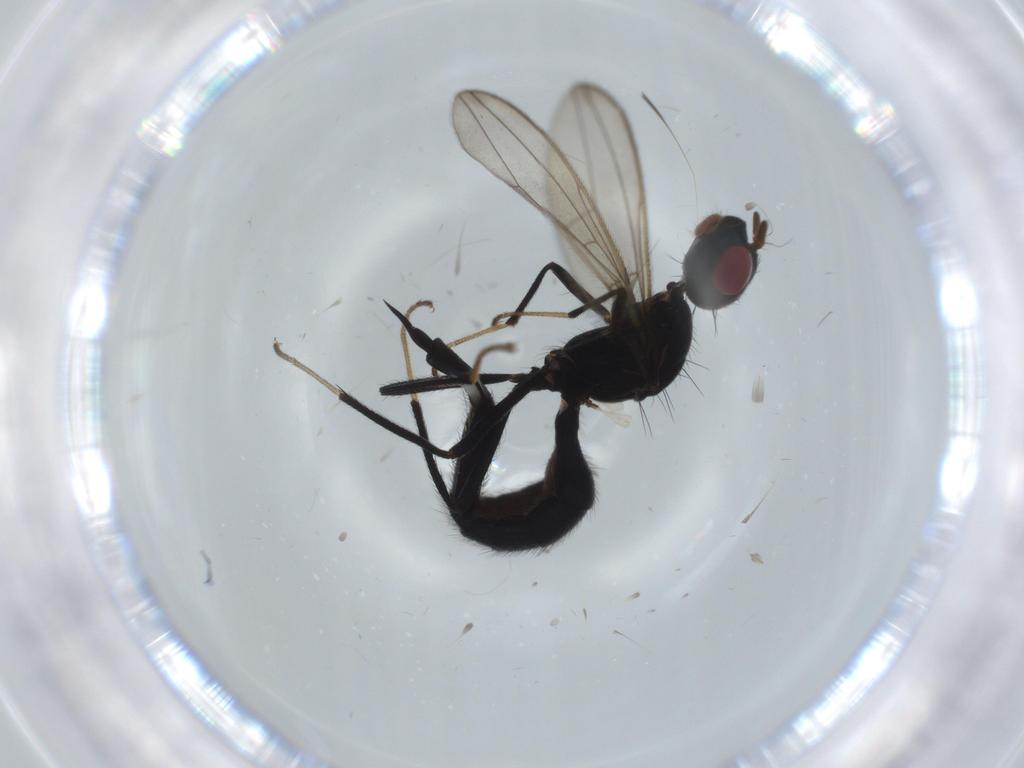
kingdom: Animalia
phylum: Arthropoda
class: Insecta
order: Diptera
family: Richardiidae
